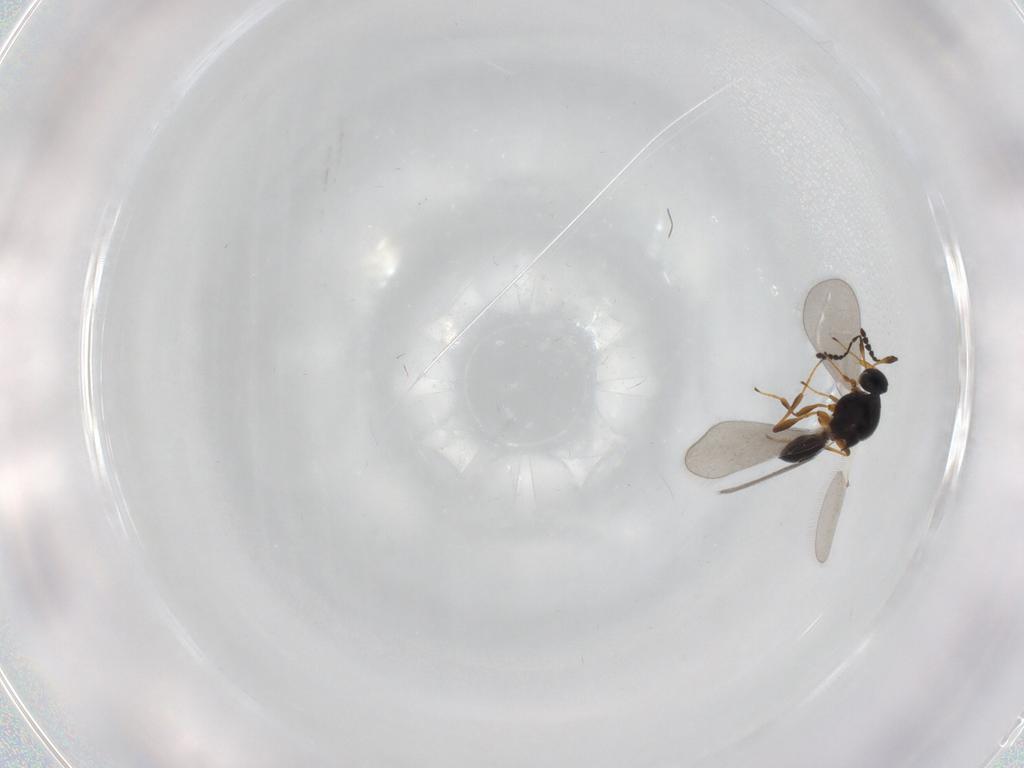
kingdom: Animalia
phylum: Arthropoda
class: Insecta
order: Hymenoptera
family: Platygastridae
